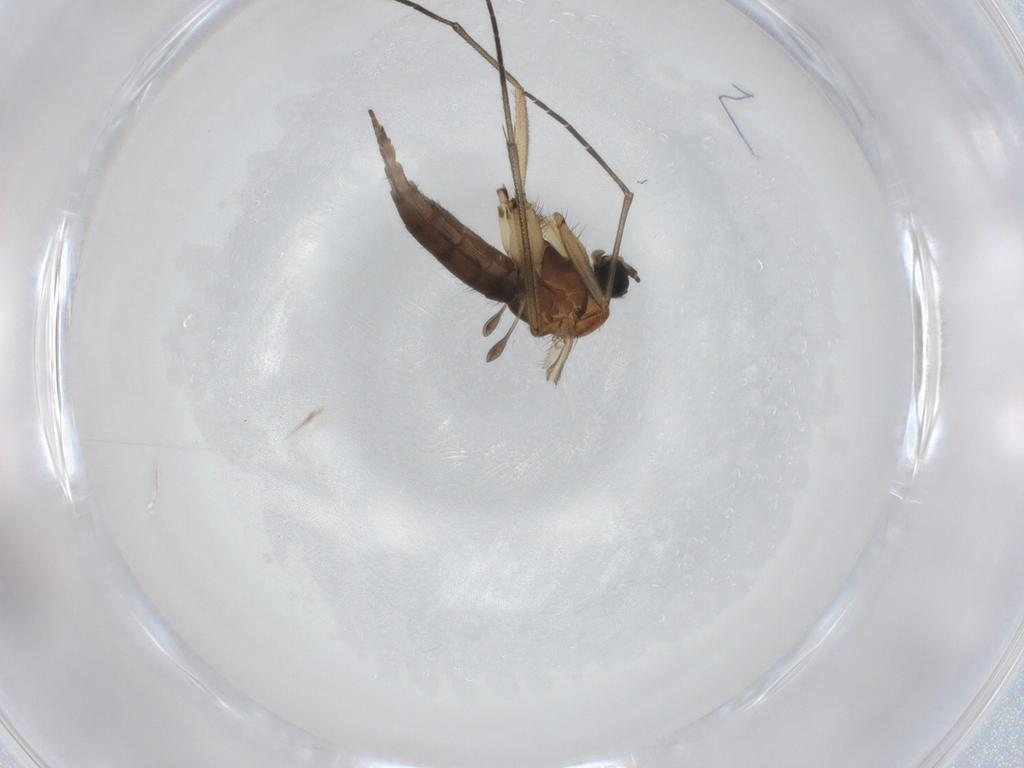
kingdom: Animalia
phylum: Arthropoda
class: Insecta
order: Diptera
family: Sciaridae
